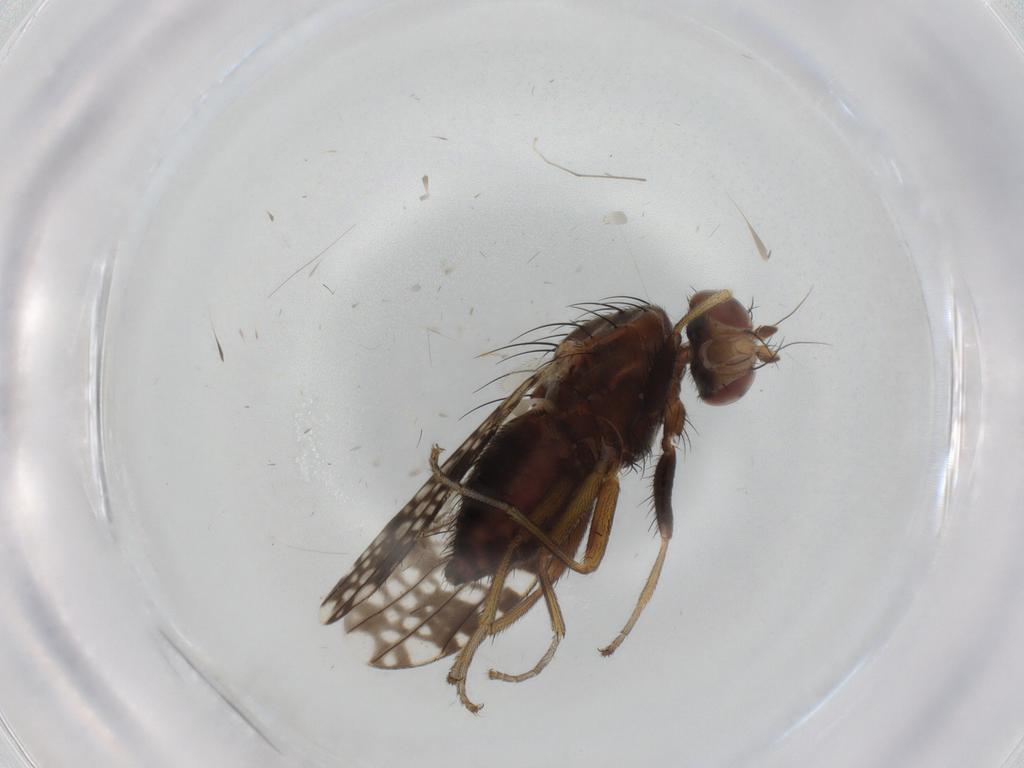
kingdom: Animalia
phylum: Arthropoda
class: Insecta
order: Diptera
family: Tephritidae
